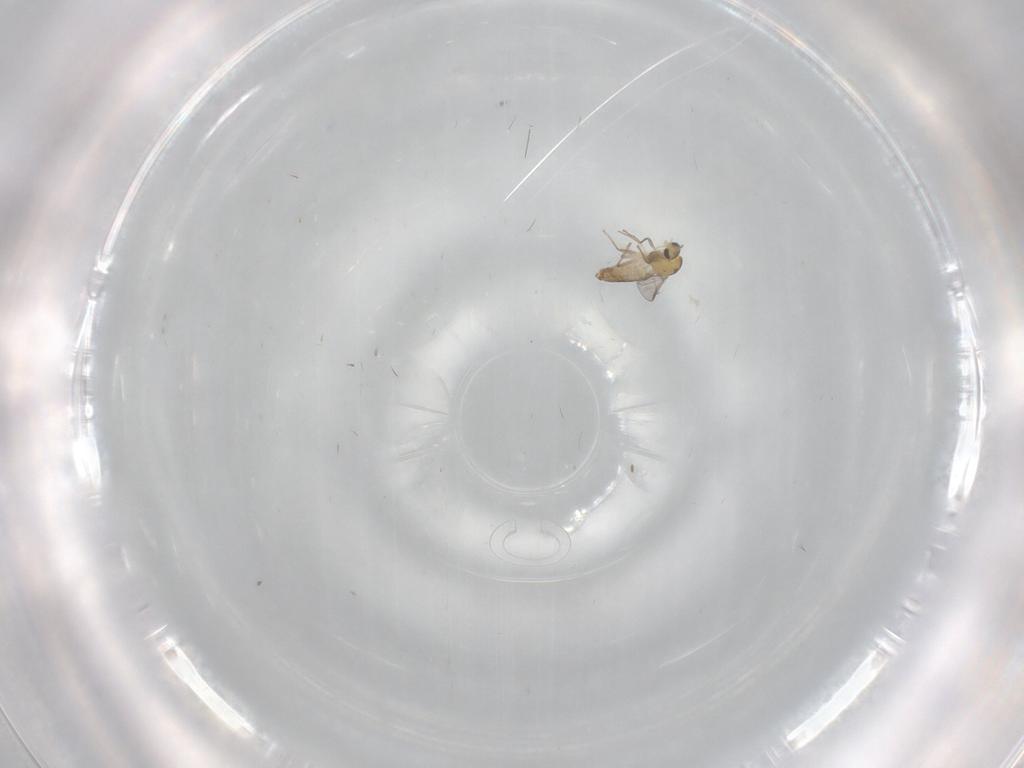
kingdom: Animalia
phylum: Arthropoda
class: Insecta
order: Diptera
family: Chironomidae
